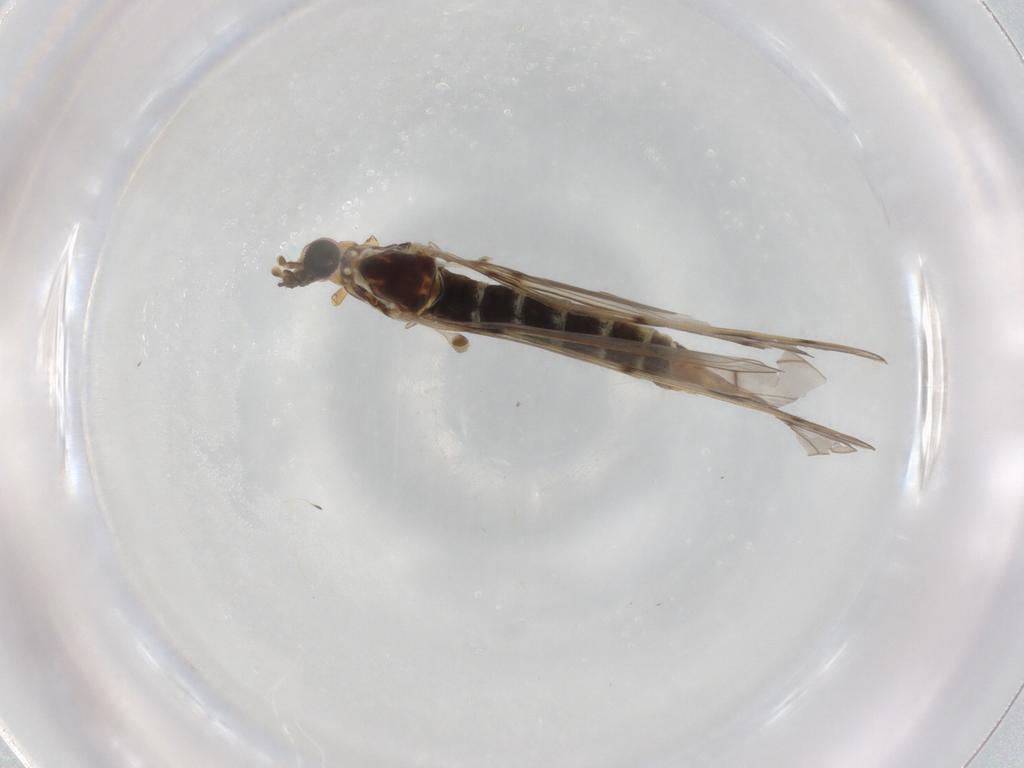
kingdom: Animalia
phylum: Arthropoda
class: Insecta
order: Diptera
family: Limoniidae
